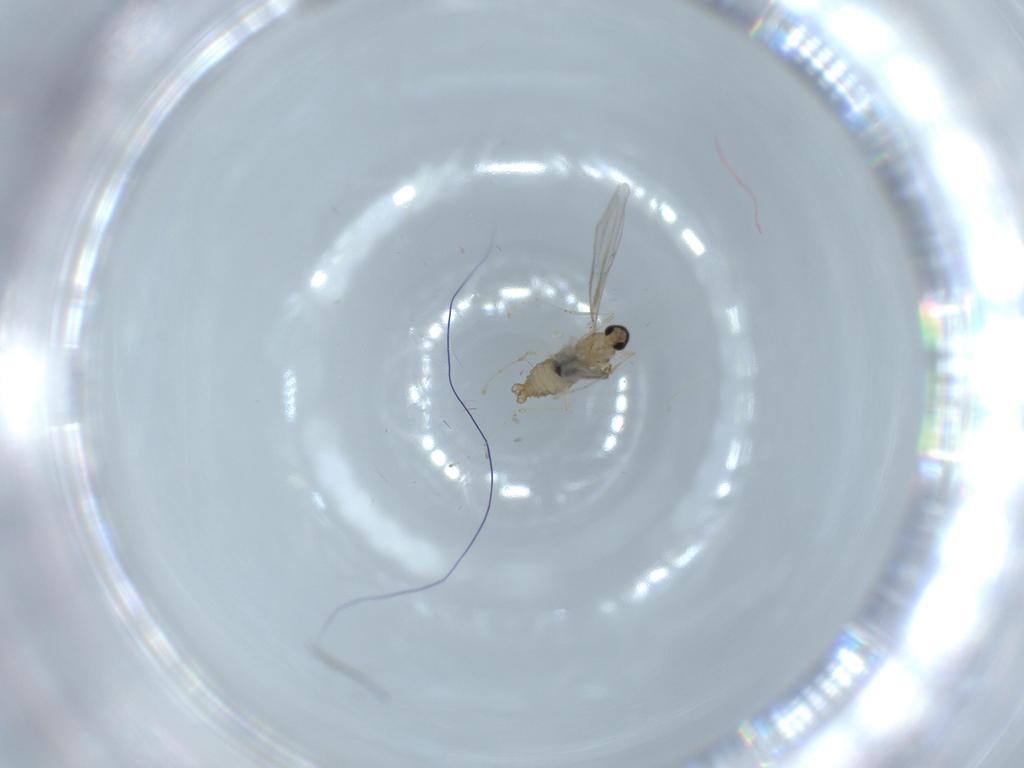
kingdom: Animalia
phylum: Arthropoda
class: Insecta
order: Diptera
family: Cecidomyiidae
